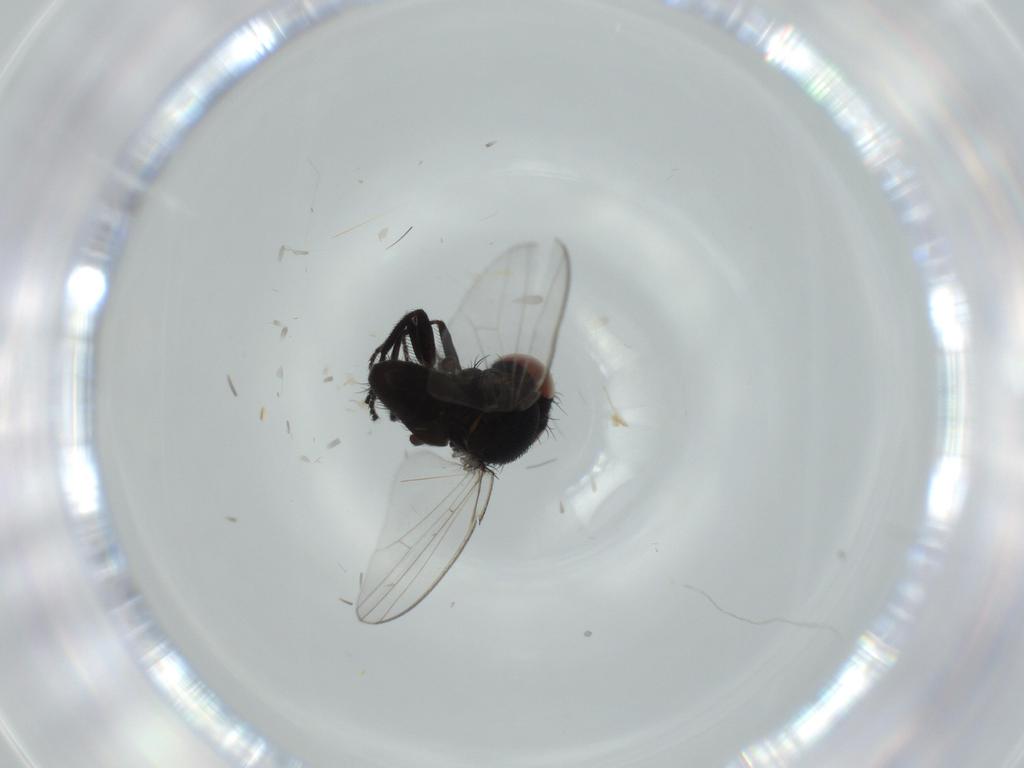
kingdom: Animalia
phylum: Arthropoda
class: Insecta
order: Diptera
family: Milichiidae
